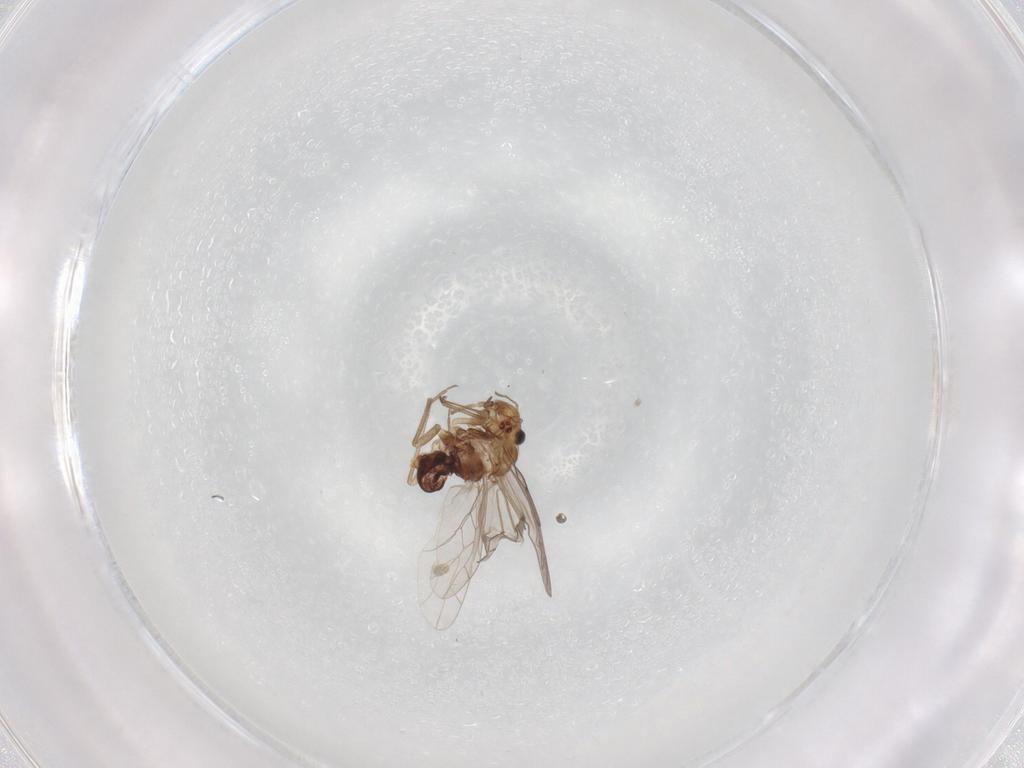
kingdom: Animalia
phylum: Arthropoda
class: Insecta
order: Psocodea
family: Lachesillidae
